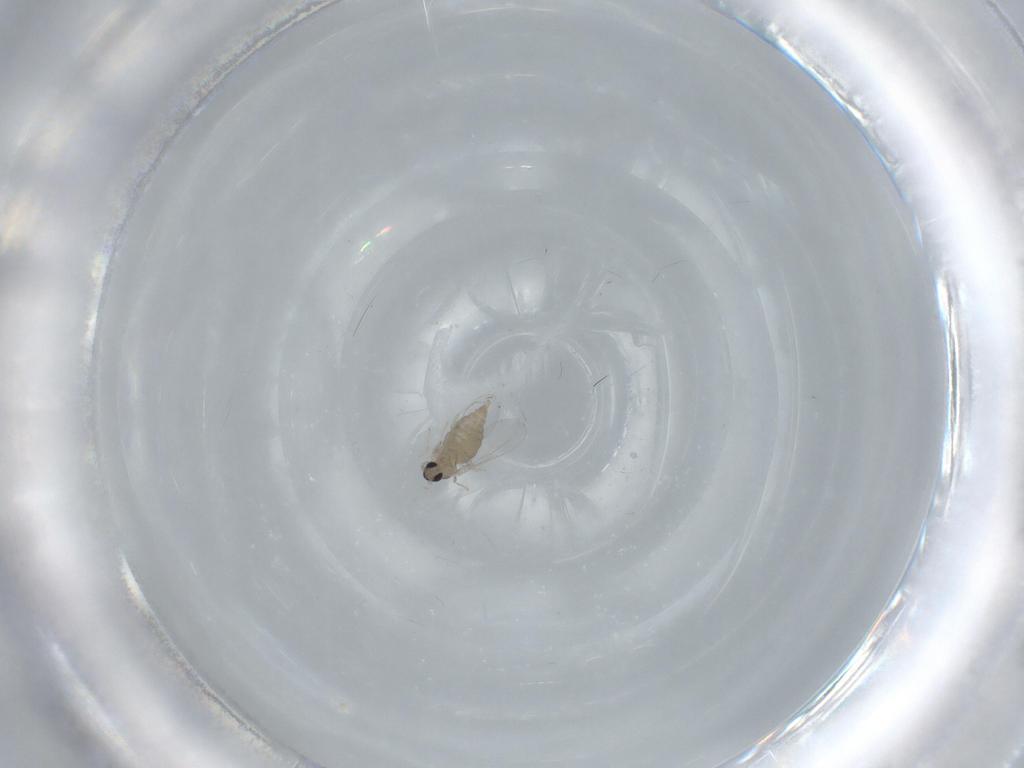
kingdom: Animalia
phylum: Arthropoda
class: Insecta
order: Diptera
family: Cecidomyiidae
